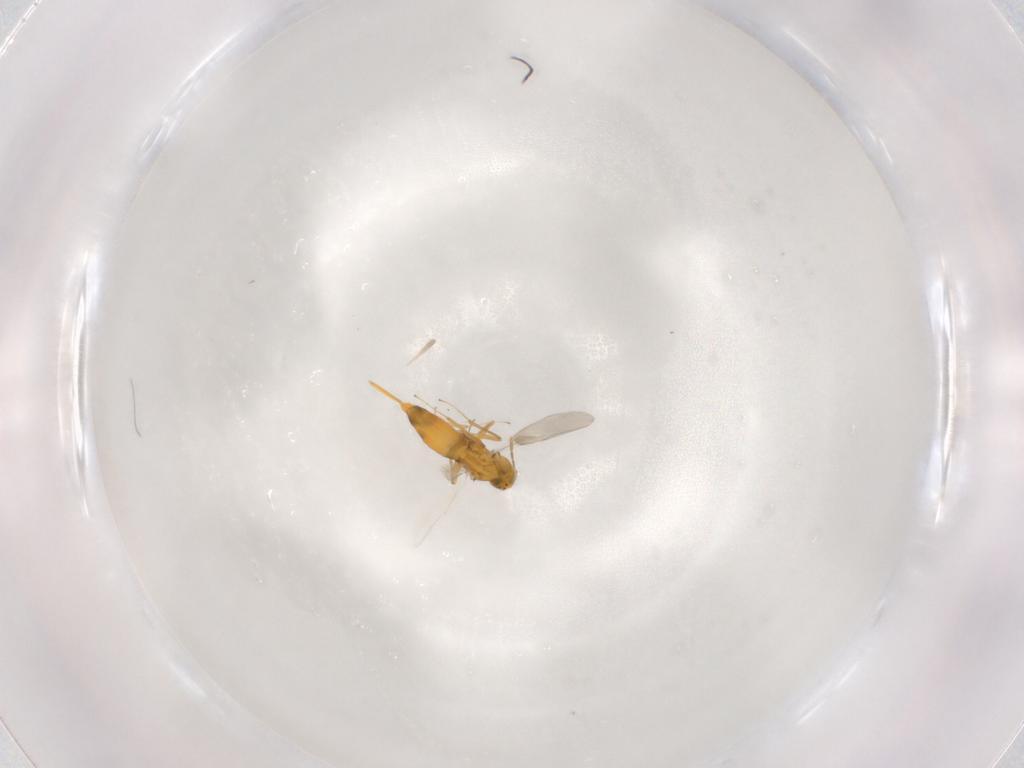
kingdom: Animalia
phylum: Arthropoda
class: Insecta
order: Hymenoptera
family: Aphelinidae
